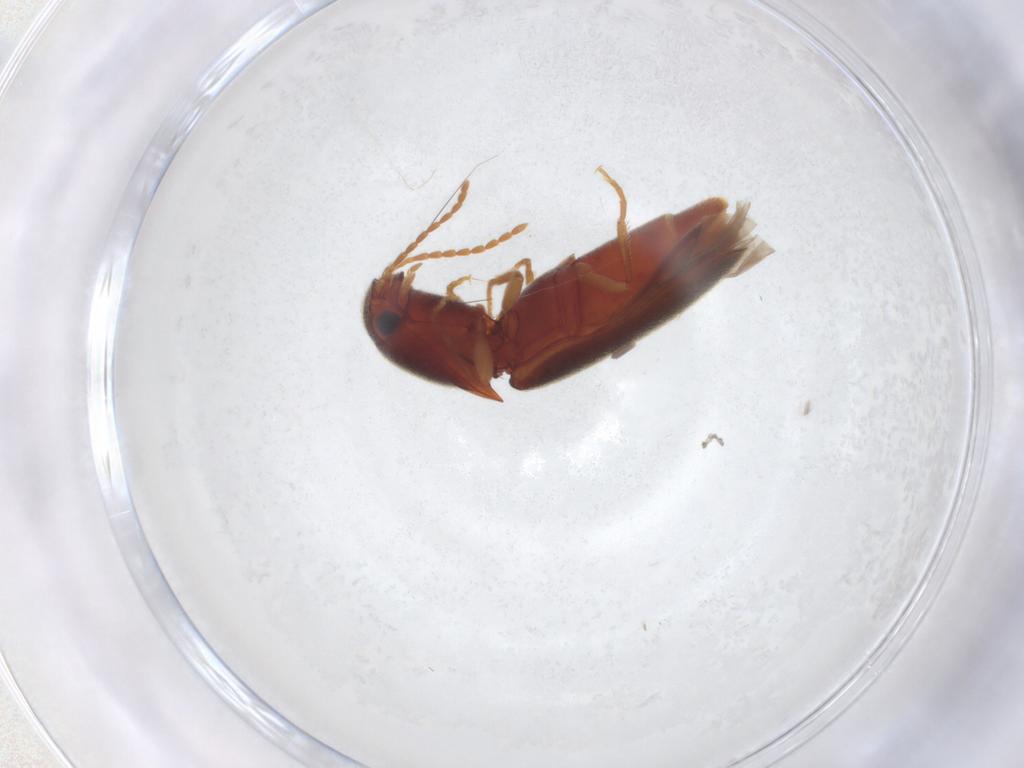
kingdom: Animalia
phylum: Arthropoda
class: Insecta
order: Coleoptera
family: Elateridae
